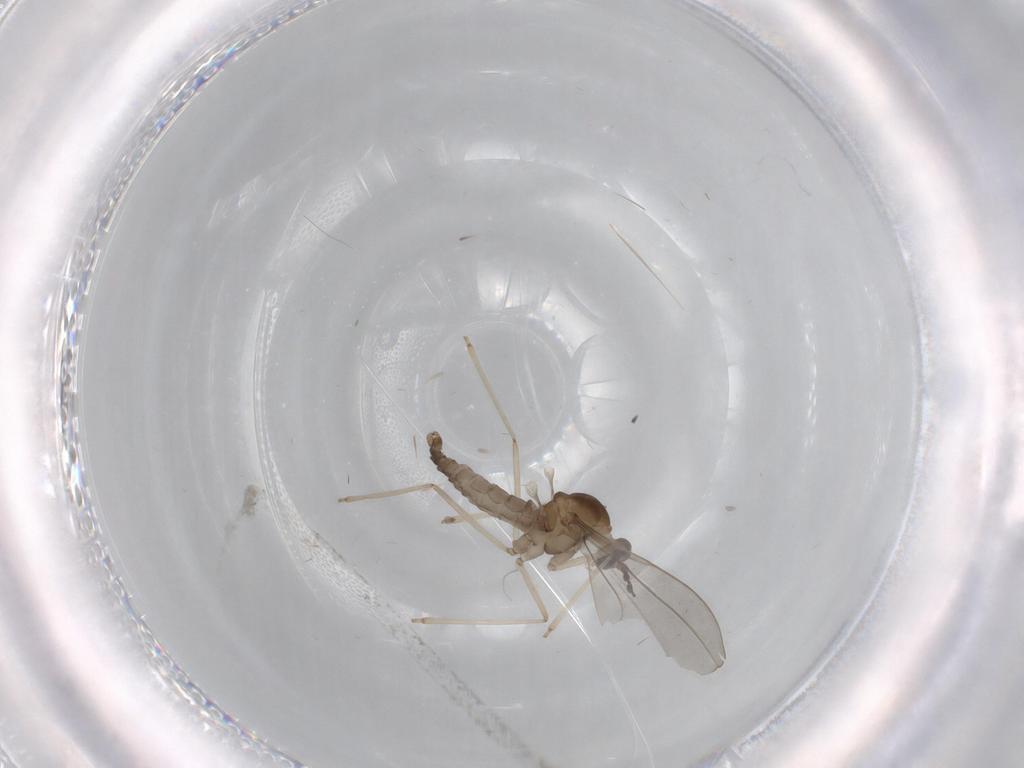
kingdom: Animalia
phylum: Arthropoda
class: Insecta
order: Diptera
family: Cecidomyiidae
